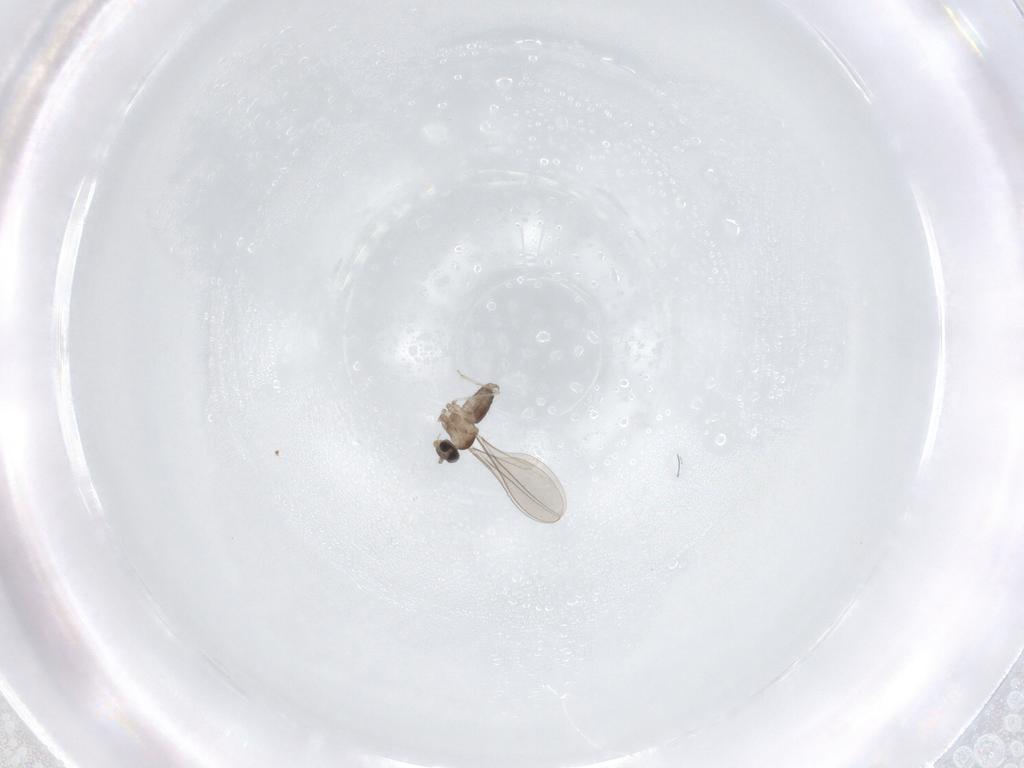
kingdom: Animalia
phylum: Arthropoda
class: Insecta
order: Diptera
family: Cecidomyiidae
